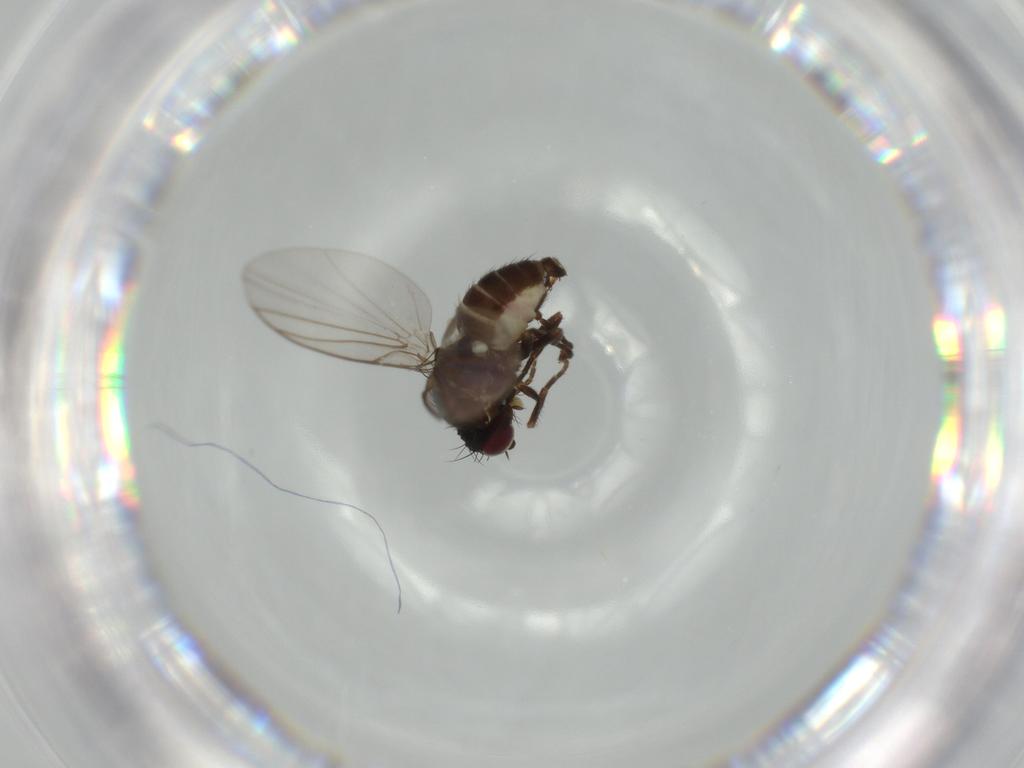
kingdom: Animalia
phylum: Arthropoda
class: Insecta
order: Diptera
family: Agromyzidae
